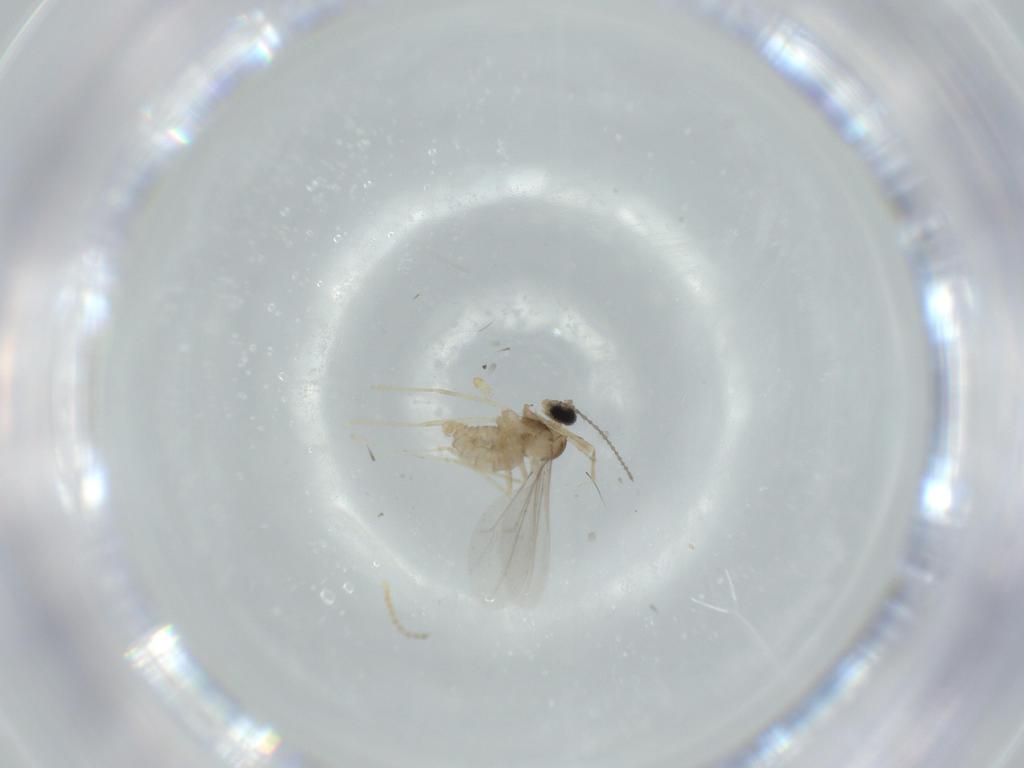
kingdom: Animalia
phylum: Arthropoda
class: Insecta
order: Diptera
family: Cecidomyiidae
